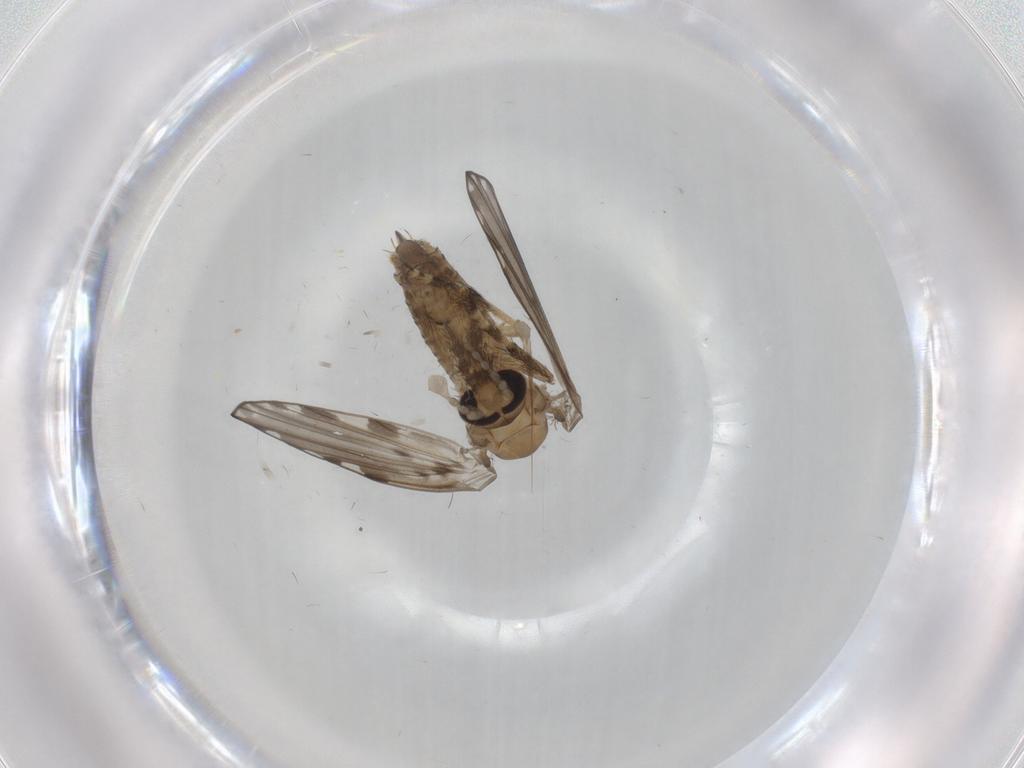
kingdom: Animalia
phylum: Arthropoda
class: Insecta
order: Diptera
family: Psychodidae
